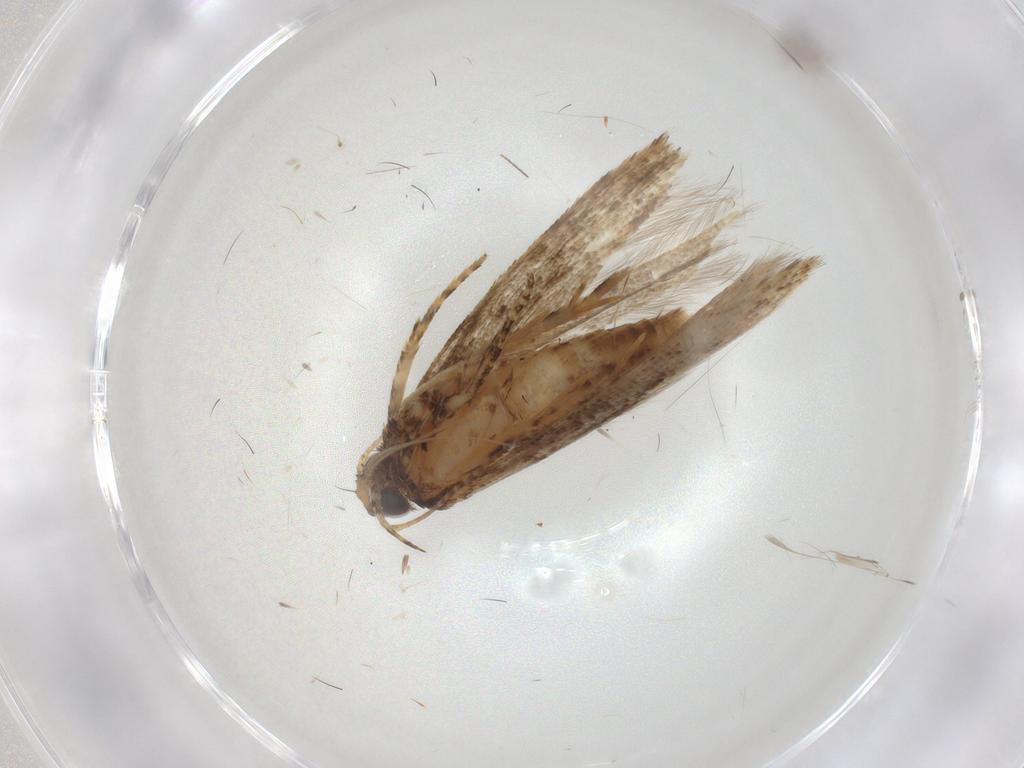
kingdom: Animalia
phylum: Arthropoda
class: Insecta
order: Lepidoptera
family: Gelechiidae
